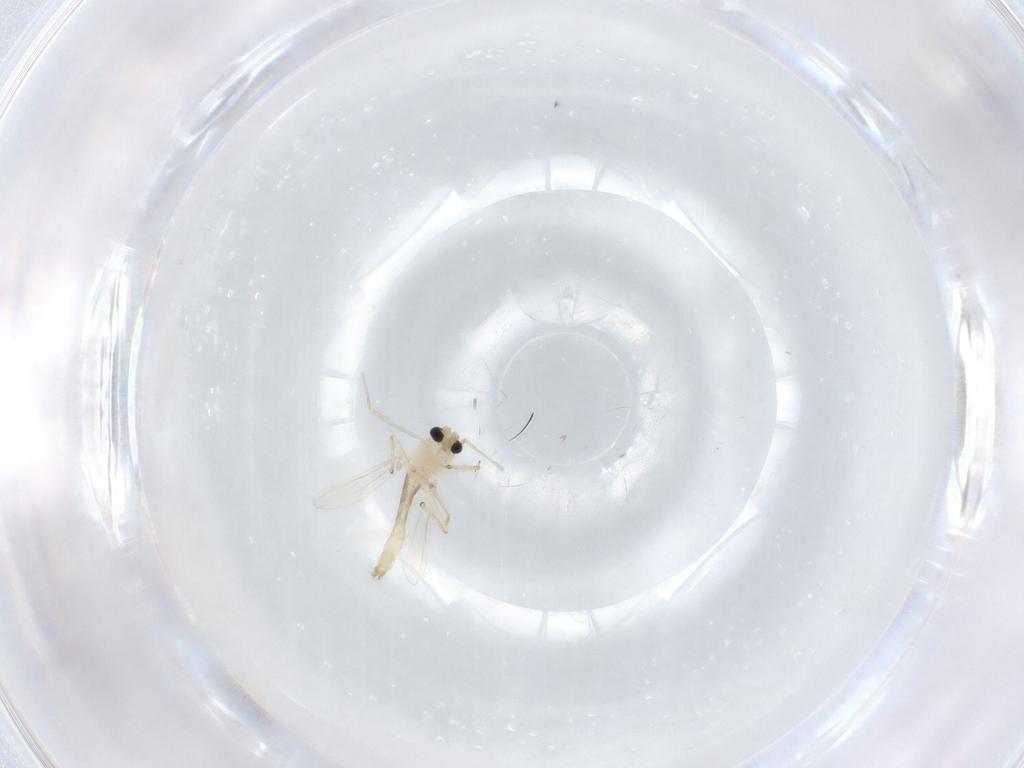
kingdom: Animalia
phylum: Arthropoda
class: Insecta
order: Diptera
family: Chironomidae
